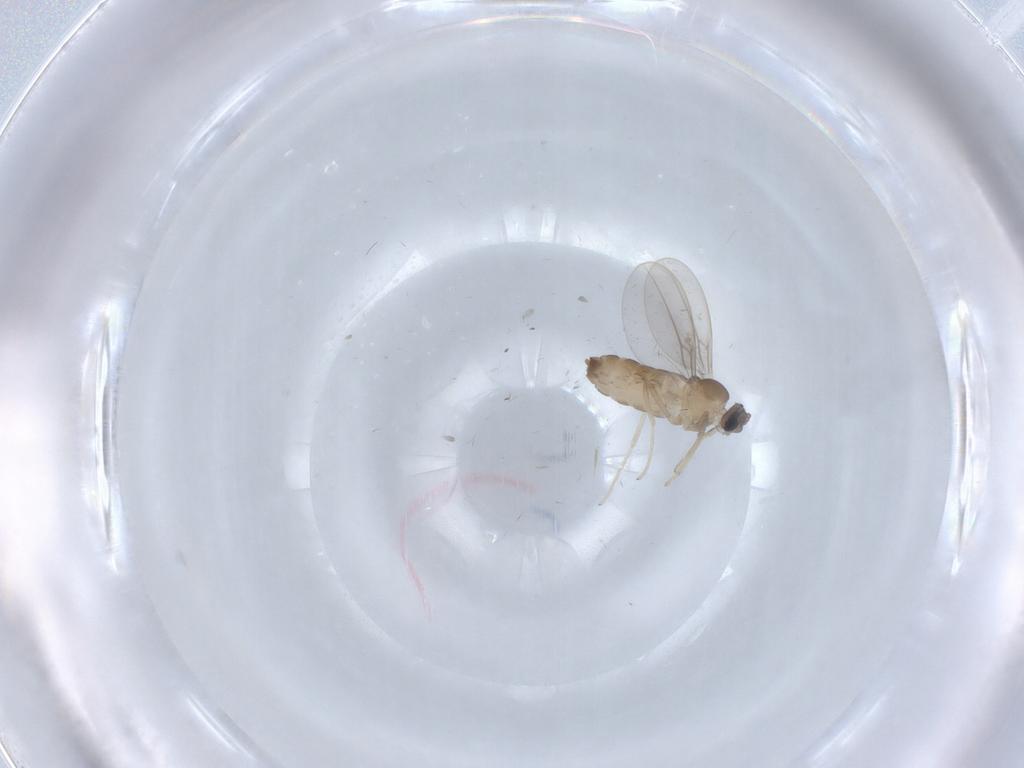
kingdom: Animalia
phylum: Arthropoda
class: Insecta
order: Diptera
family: Cecidomyiidae
